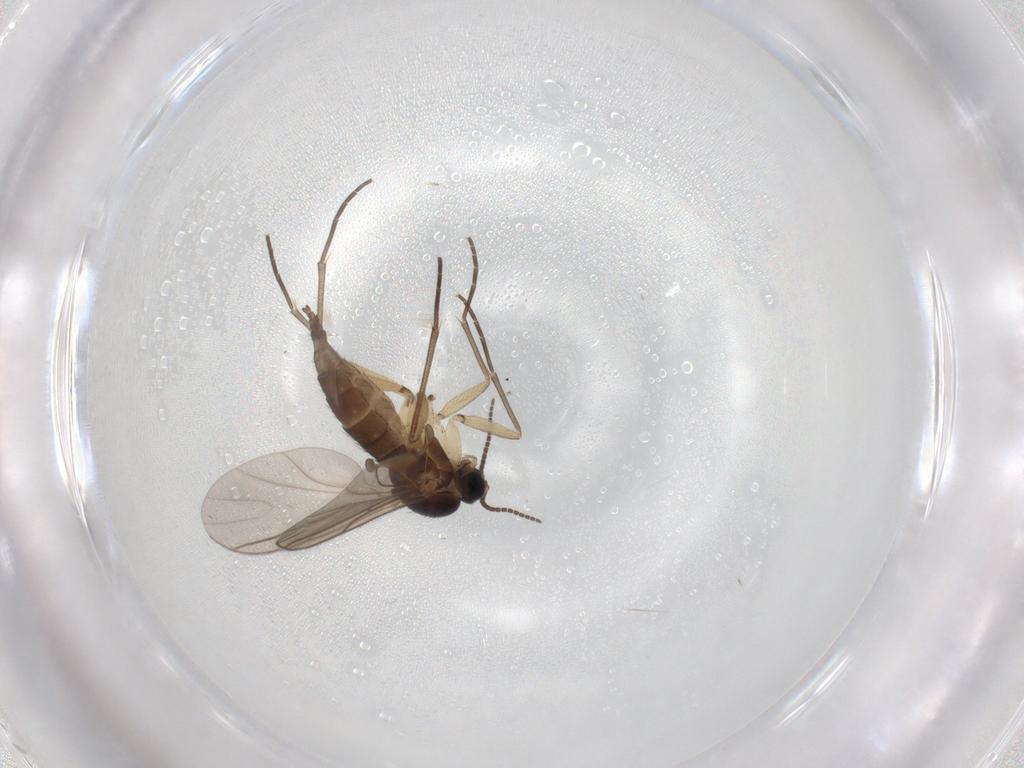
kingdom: Animalia
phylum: Arthropoda
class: Insecta
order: Diptera
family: Sciaridae
